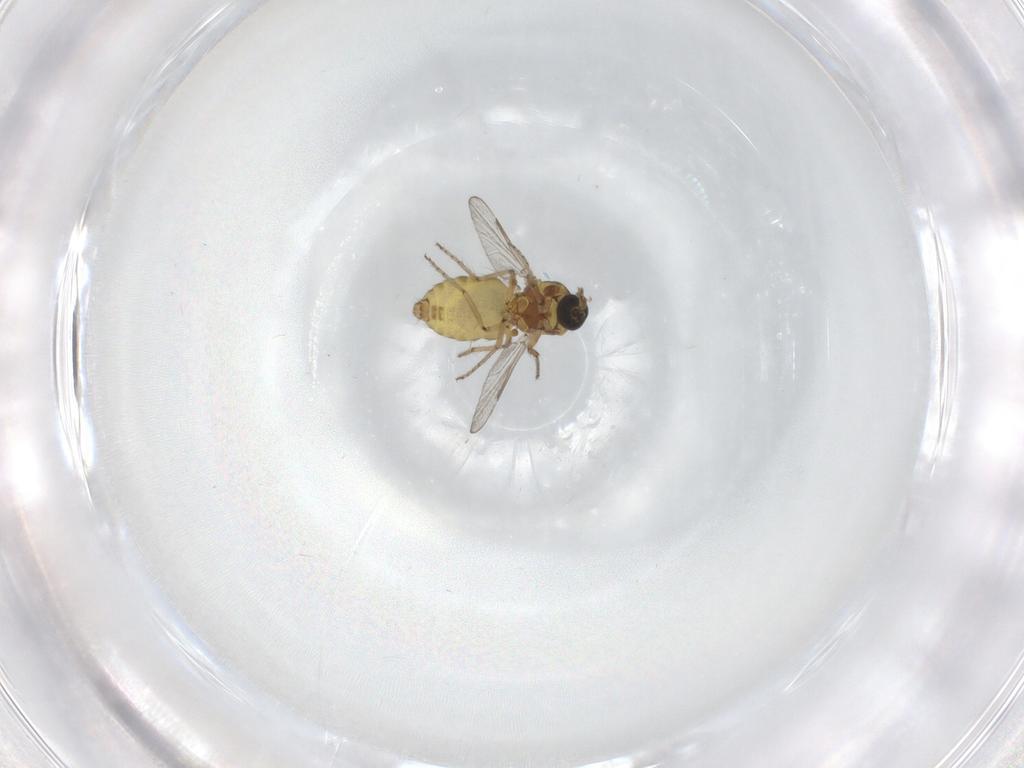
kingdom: Animalia
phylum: Arthropoda
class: Insecta
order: Diptera
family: Ceratopogonidae
